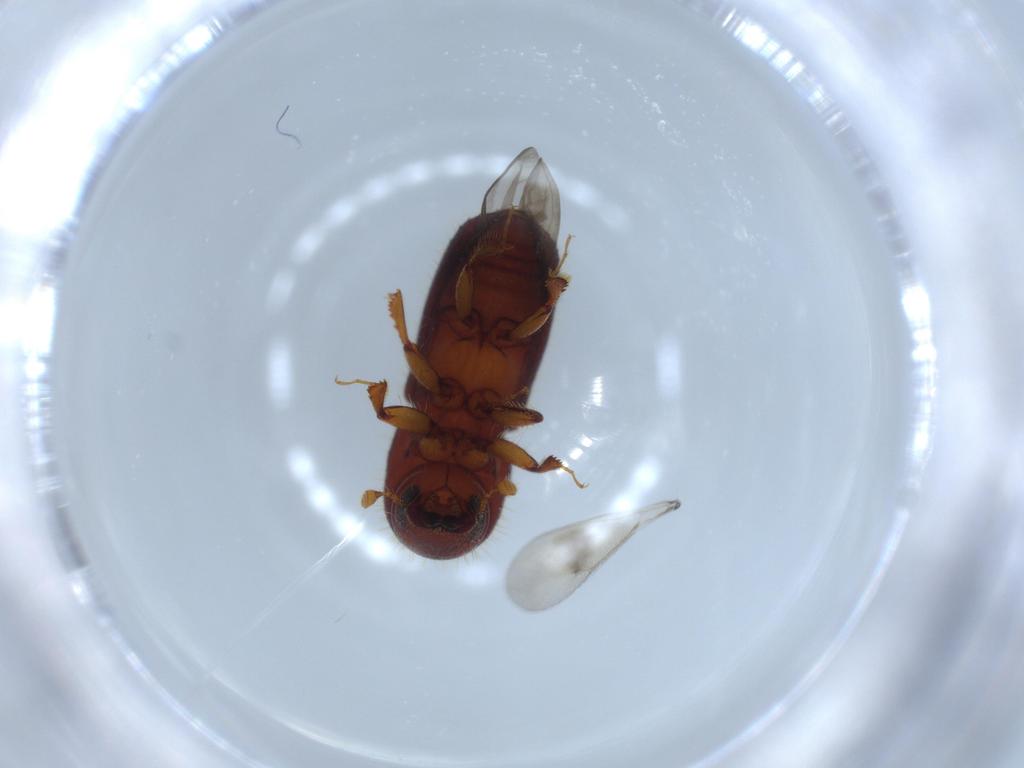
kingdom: Animalia
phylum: Arthropoda
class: Insecta
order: Coleoptera
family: Curculionidae
